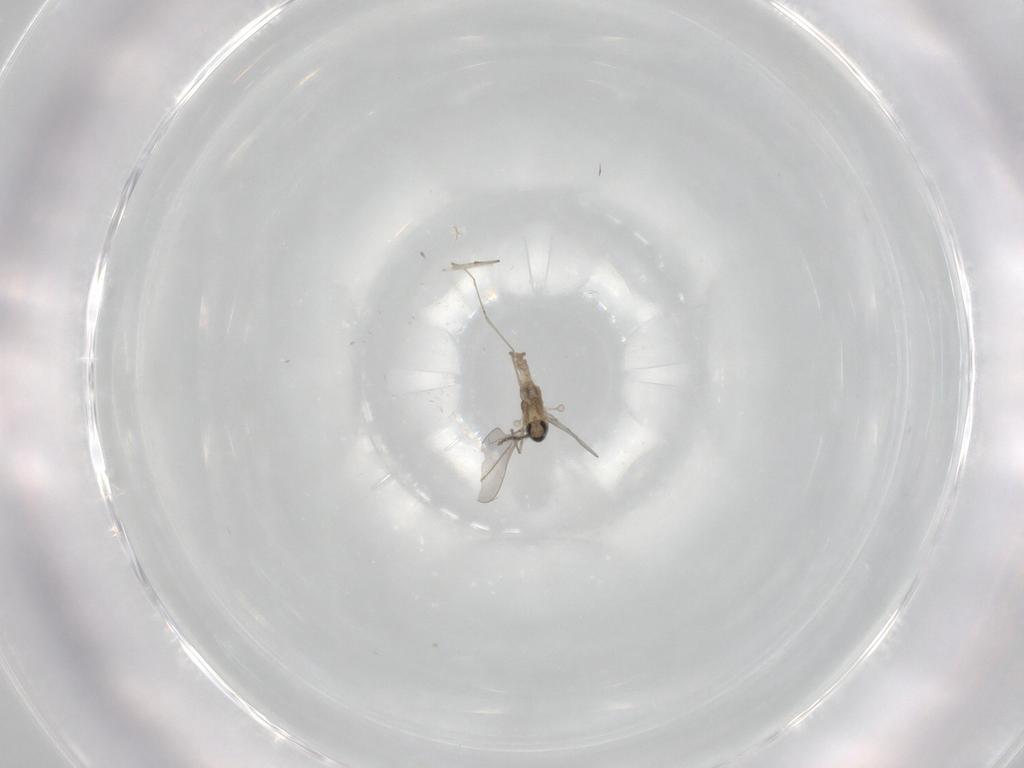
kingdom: Animalia
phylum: Arthropoda
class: Insecta
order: Diptera
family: Cecidomyiidae
